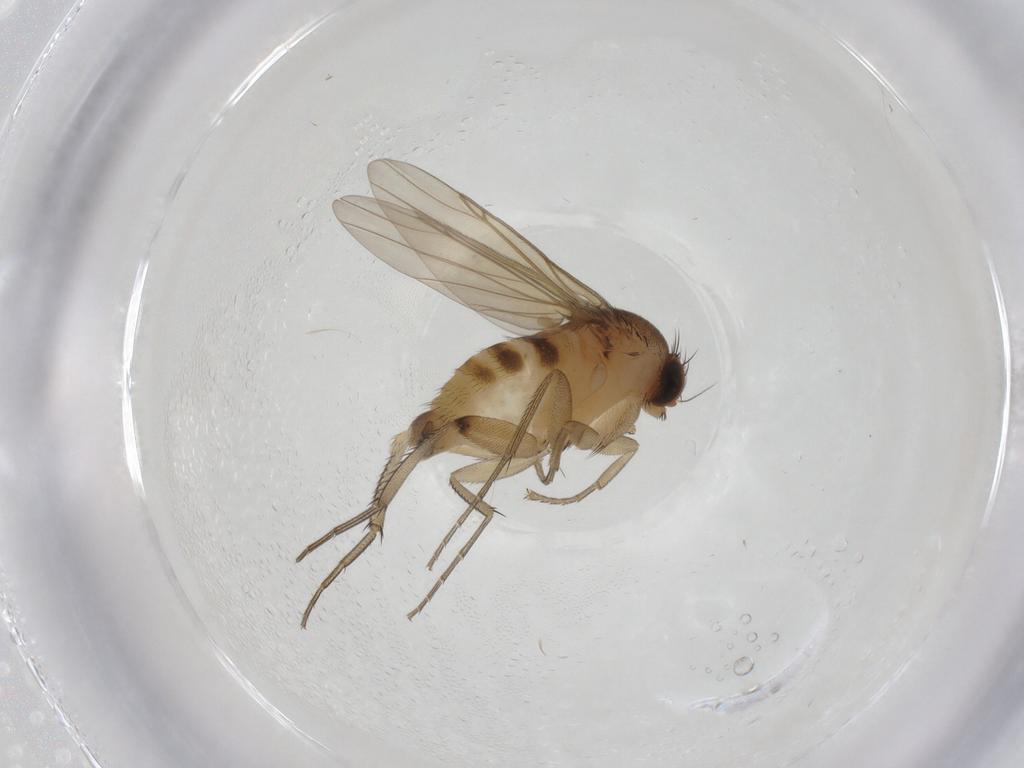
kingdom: Animalia
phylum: Arthropoda
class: Insecta
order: Diptera
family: Phoridae
